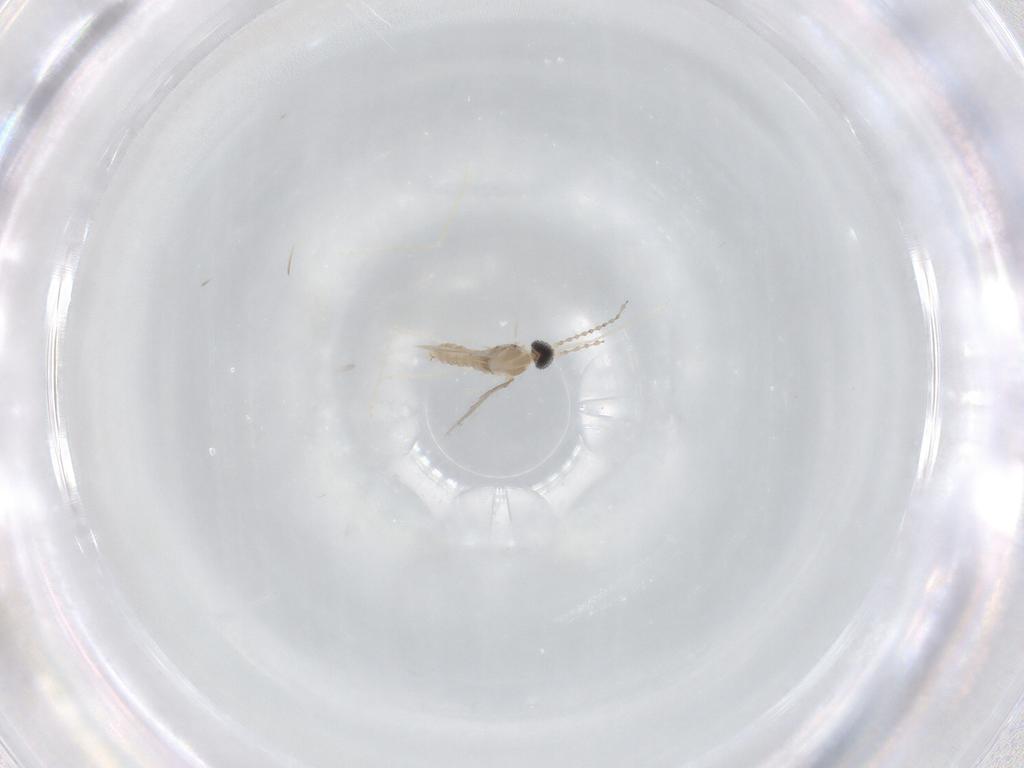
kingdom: Animalia
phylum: Arthropoda
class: Insecta
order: Diptera
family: Cecidomyiidae
